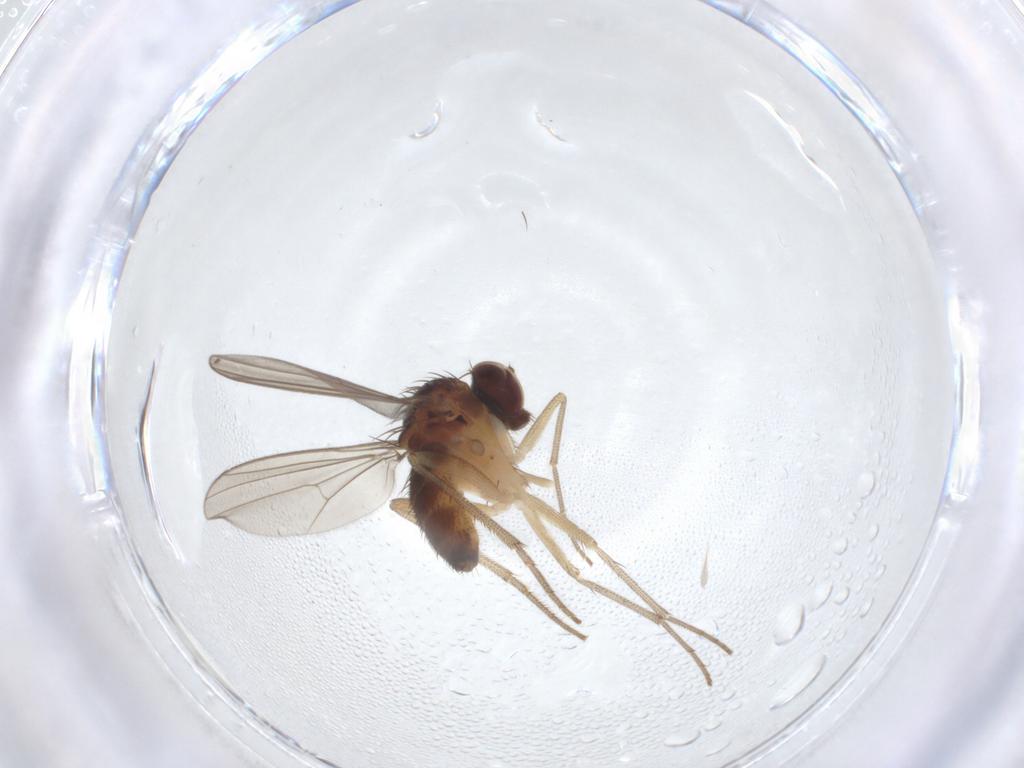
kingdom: Animalia
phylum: Arthropoda
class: Insecta
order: Diptera
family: Dolichopodidae
